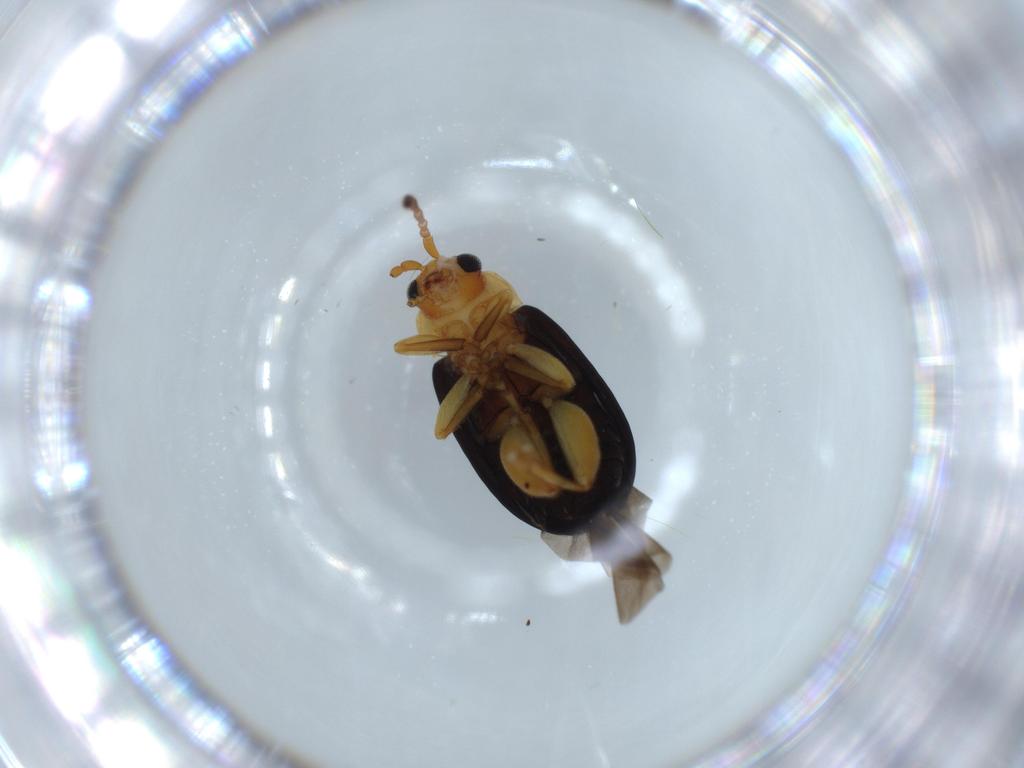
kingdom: Animalia
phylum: Arthropoda
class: Insecta
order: Coleoptera
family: Chrysomelidae
